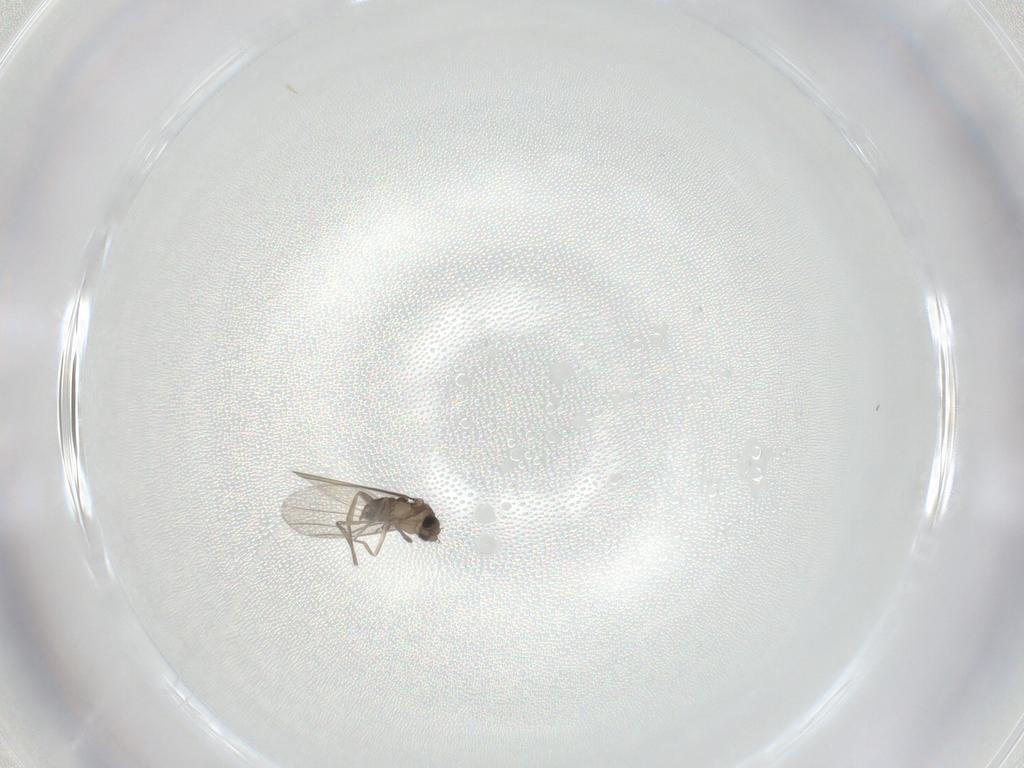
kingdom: Animalia
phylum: Arthropoda
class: Insecta
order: Diptera
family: Phoridae
